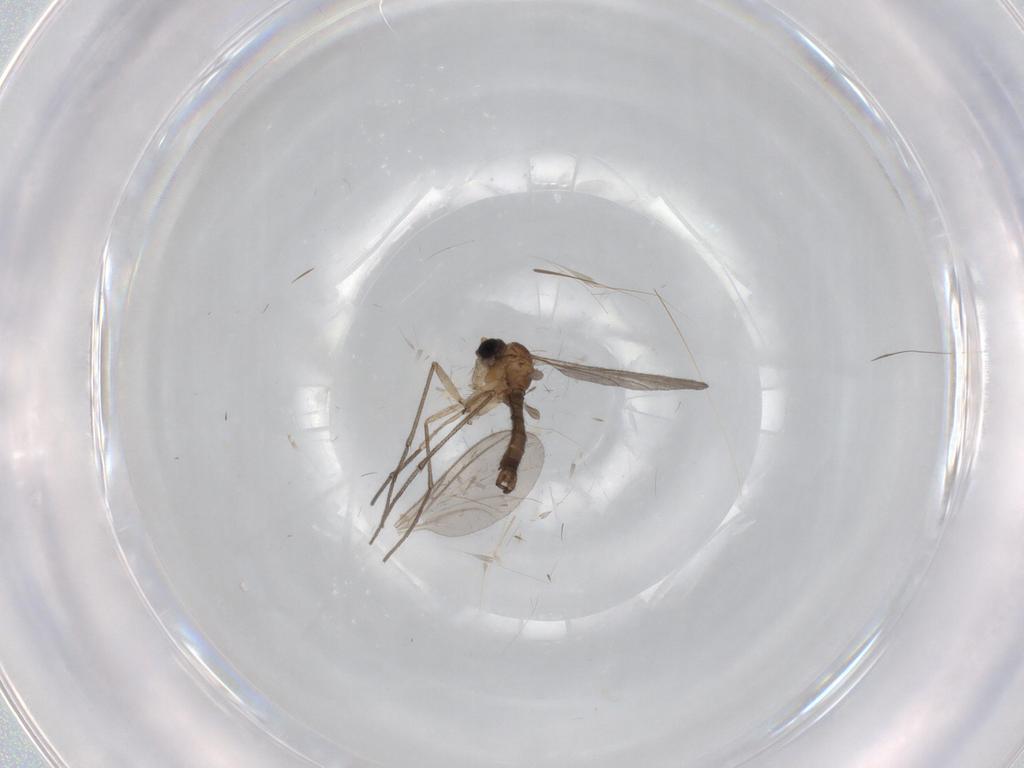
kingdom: Animalia
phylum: Arthropoda
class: Insecta
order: Diptera
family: Sciaridae
